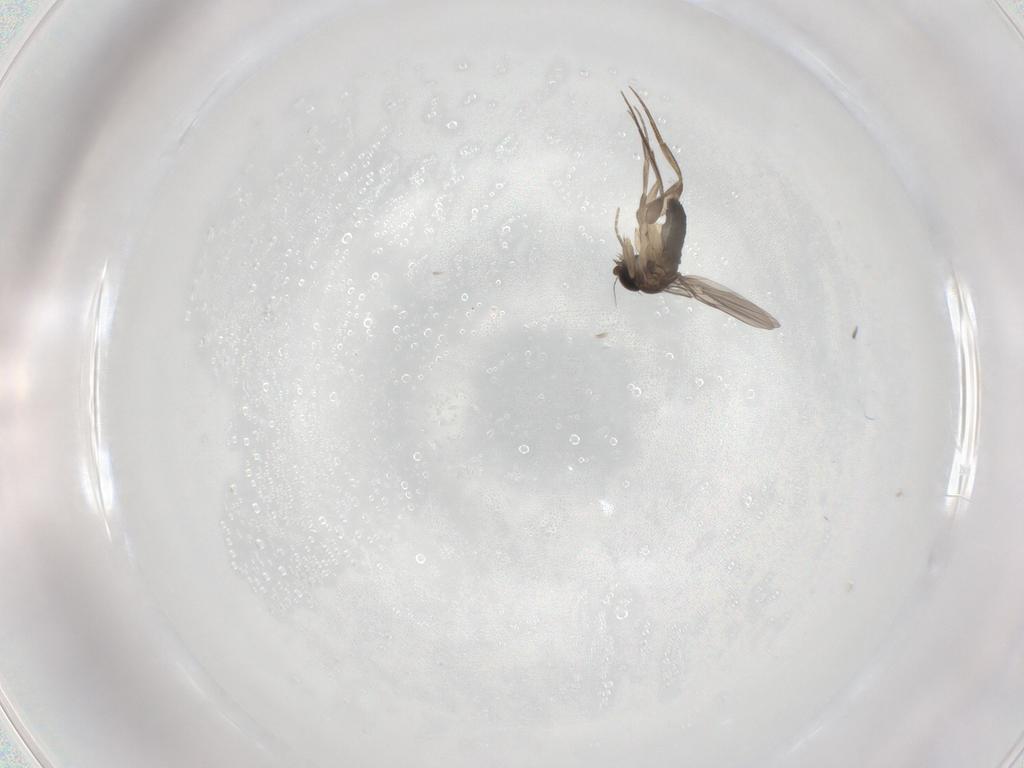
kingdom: Animalia
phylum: Arthropoda
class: Insecta
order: Diptera
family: Phoridae
